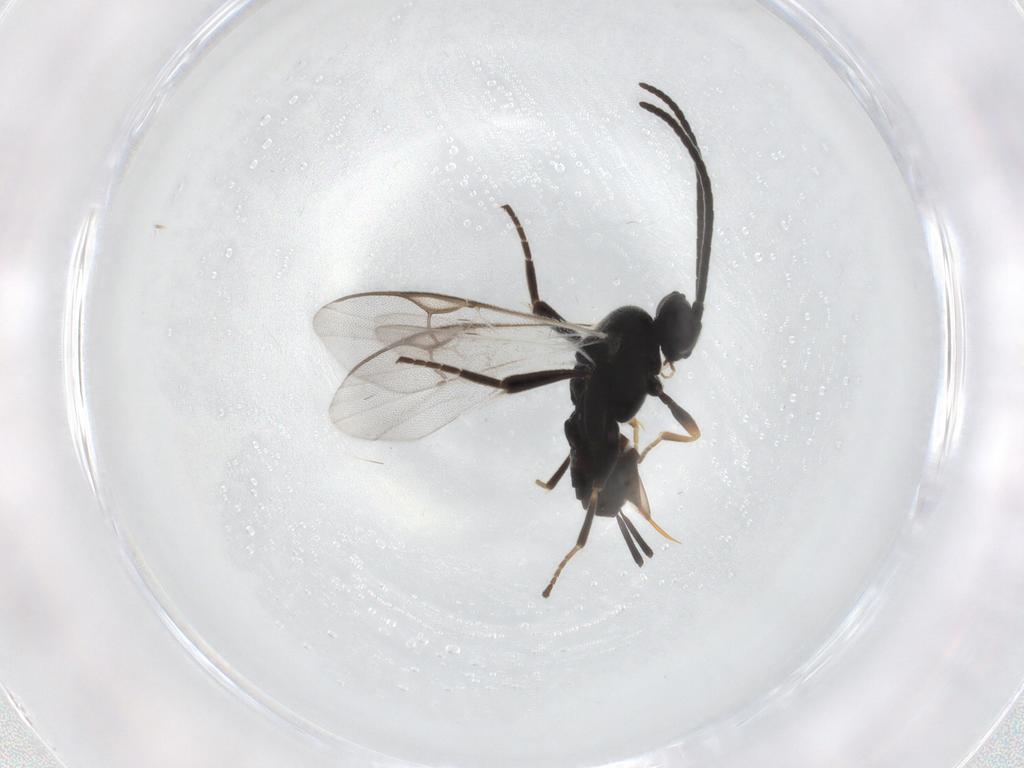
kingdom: Animalia
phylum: Arthropoda
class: Insecta
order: Hymenoptera
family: Braconidae
